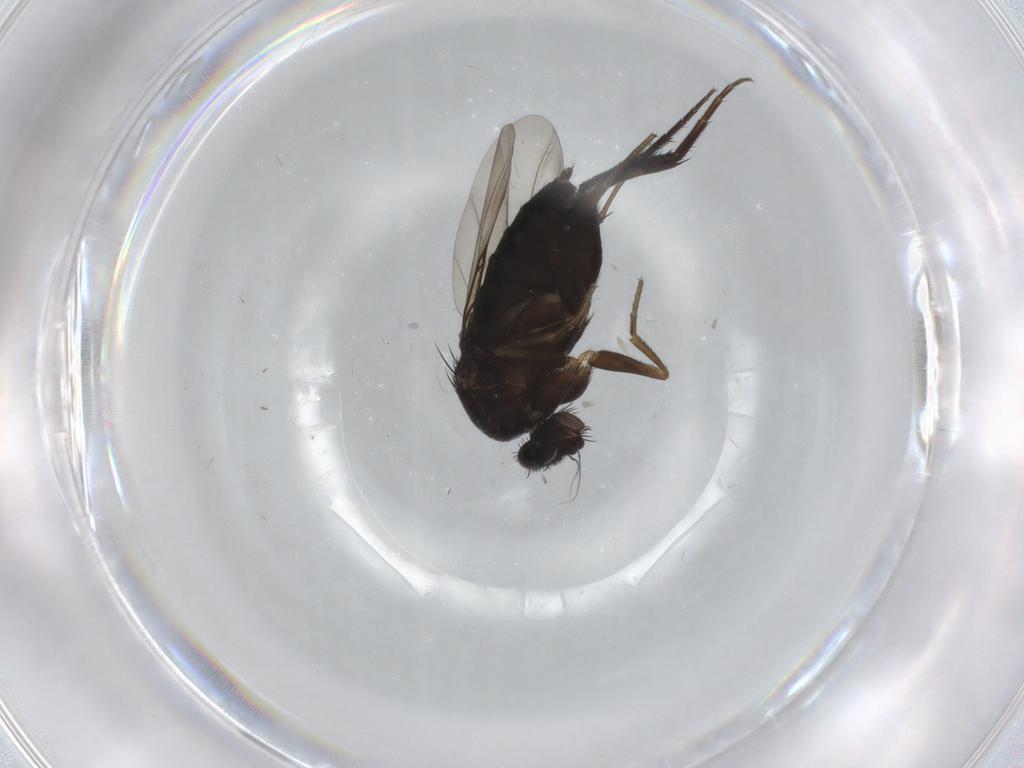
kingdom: Animalia
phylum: Arthropoda
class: Insecta
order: Diptera
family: Phoridae
